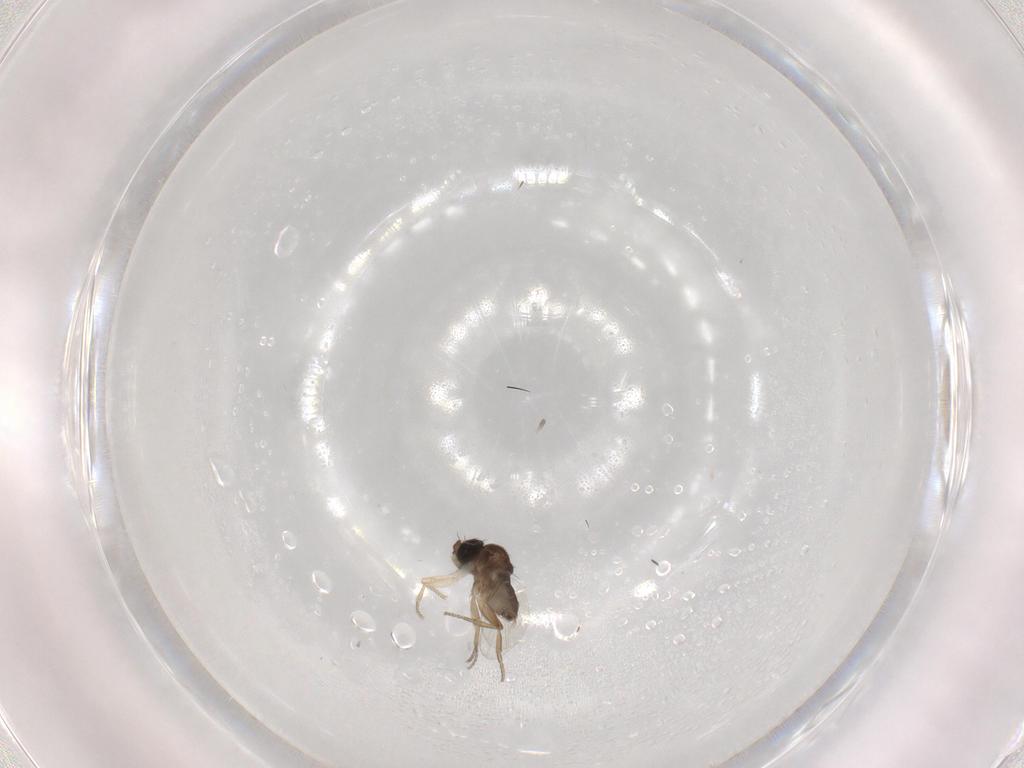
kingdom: Animalia
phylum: Arthropoda
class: Insecta
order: Diptera
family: Phoridae
